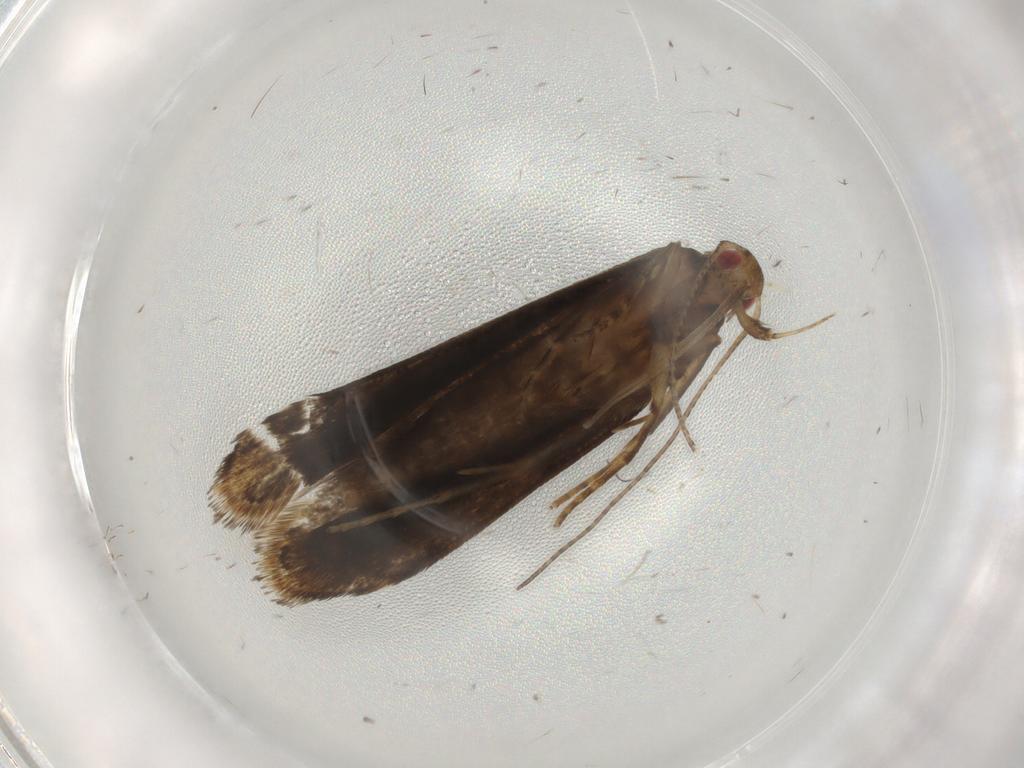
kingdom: Animalia
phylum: Arthropoda
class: Insecta
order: Lepidoptera
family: Gelechiidae
